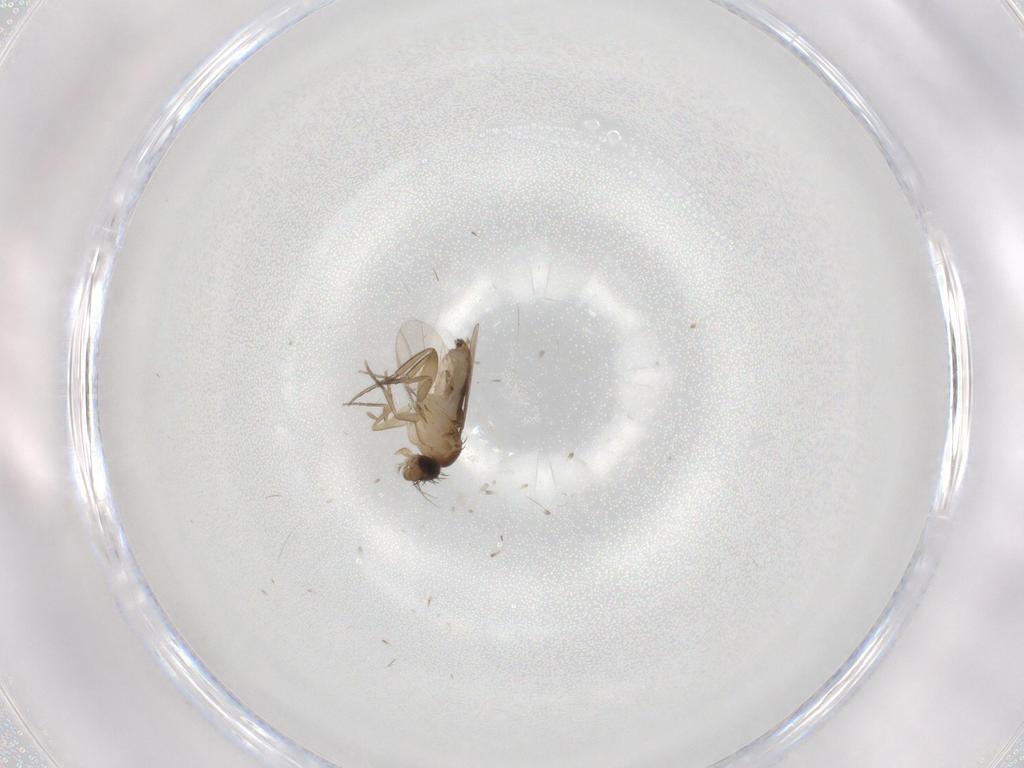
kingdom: Animalia
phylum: Arthropoda
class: Insecta
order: Diptera
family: Phoridae
